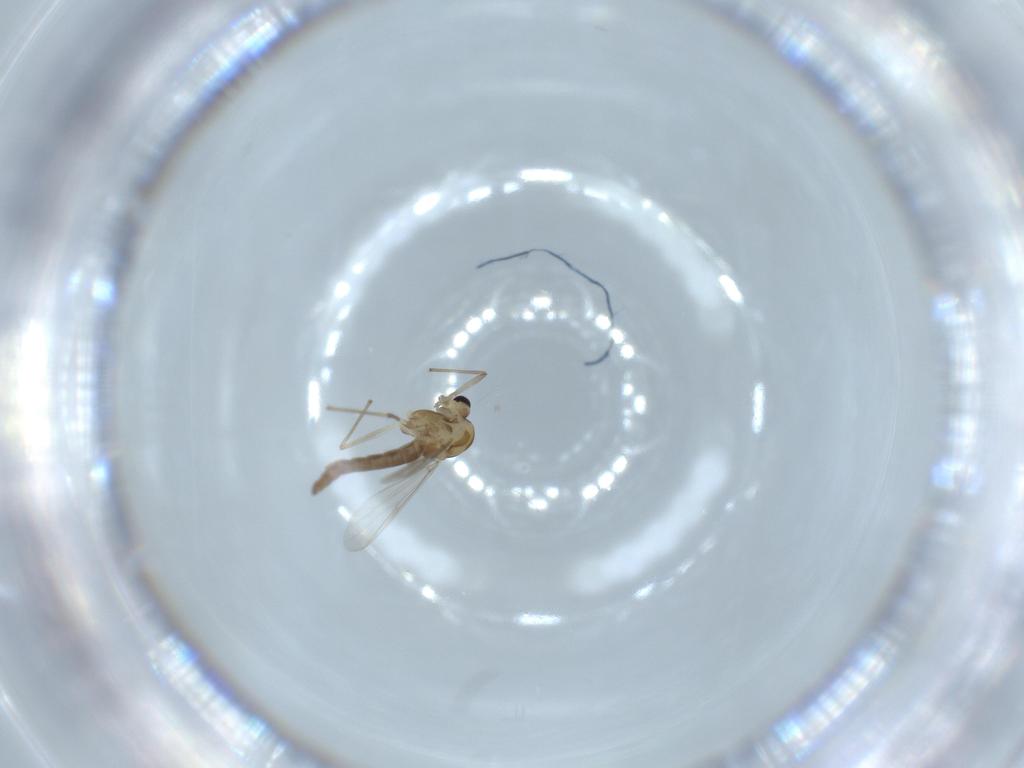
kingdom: Animalia
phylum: Arthropoda
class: Insecta
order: Diptera
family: Chironomidae
